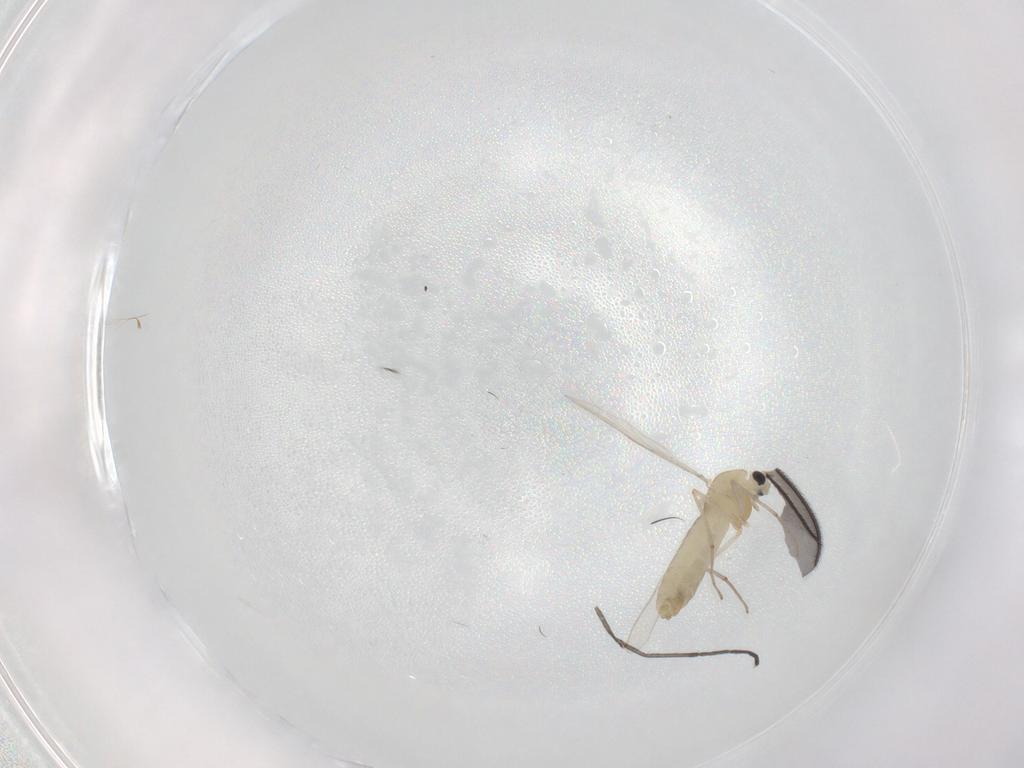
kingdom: Animalia
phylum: Arthropoda
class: Insecta
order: Diptera
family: Chironomidae
